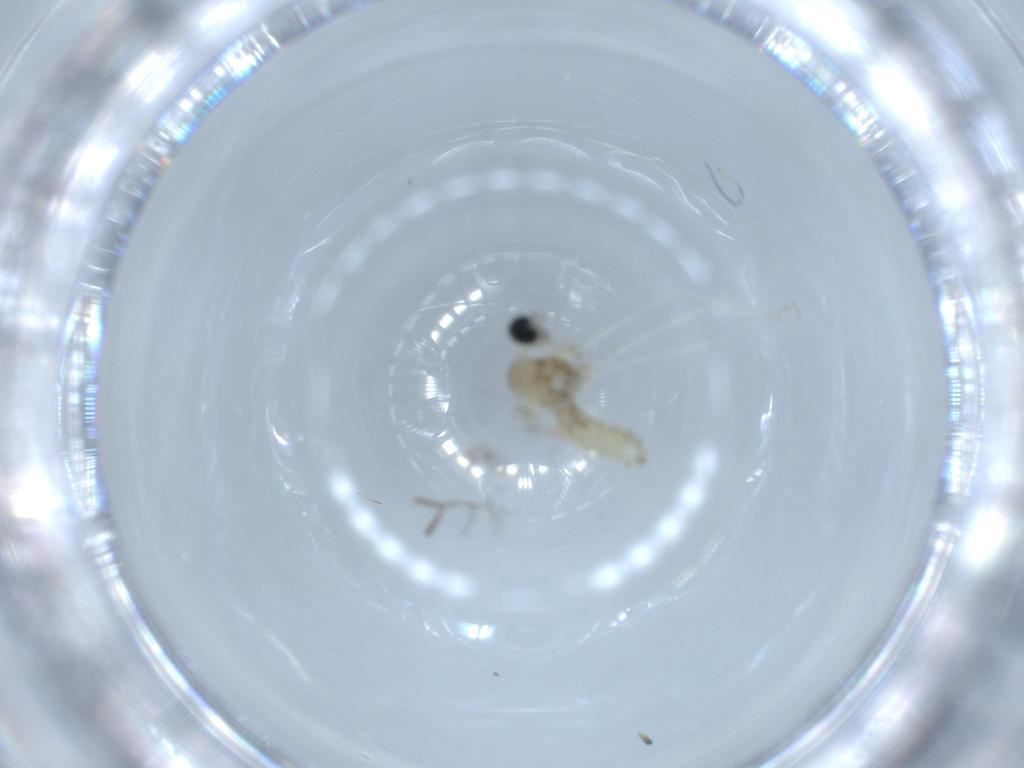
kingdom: Animalia
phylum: Arthropoda
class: Insecta
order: Diptera
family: Cecidomyiidae
